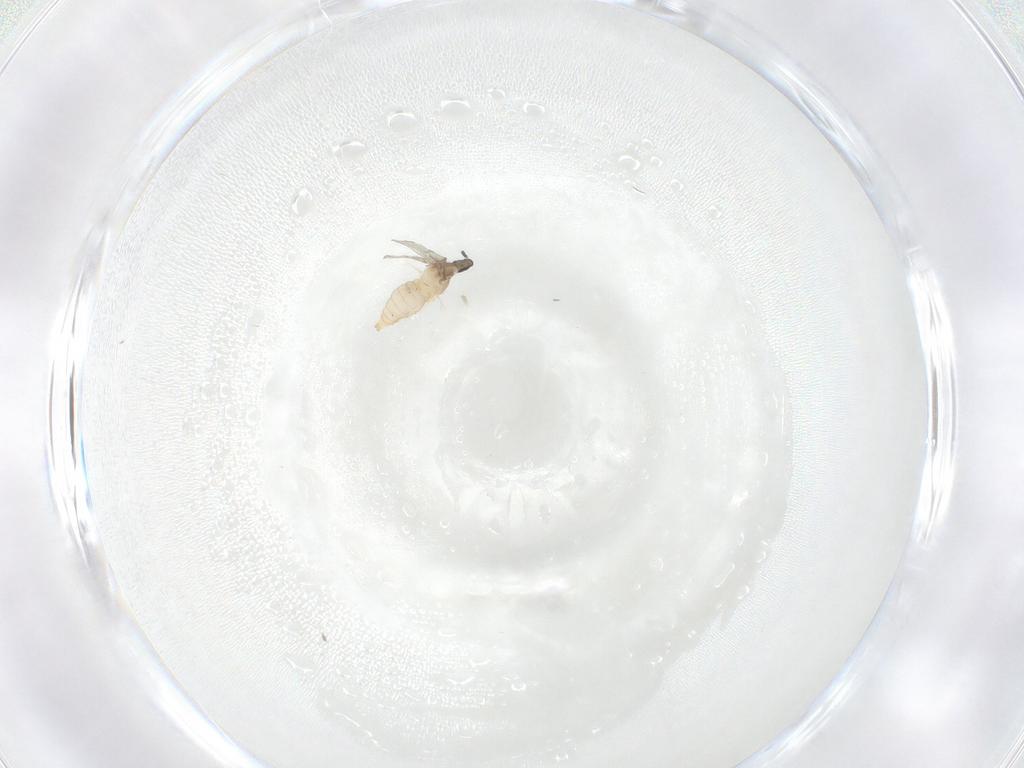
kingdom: Animalia
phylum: Arthropoda
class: Insecta
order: Diptera
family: Cecidomyiidae
